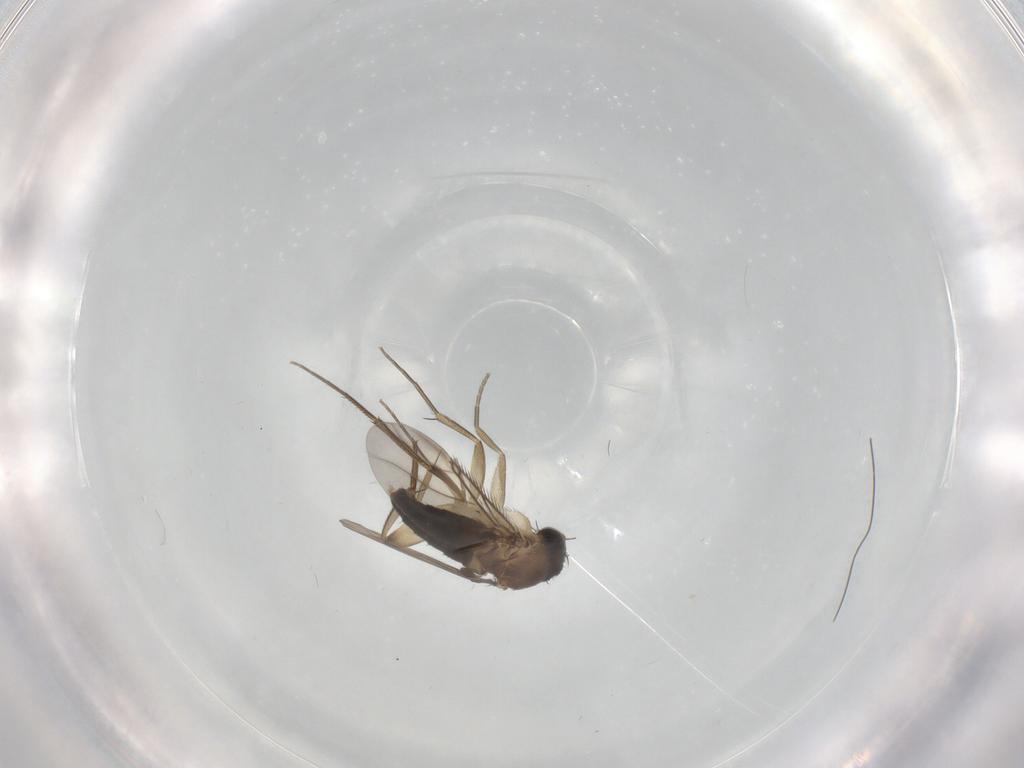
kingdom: Animalia
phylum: Arthropoda
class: Insecta
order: Diptera
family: Phoridae
